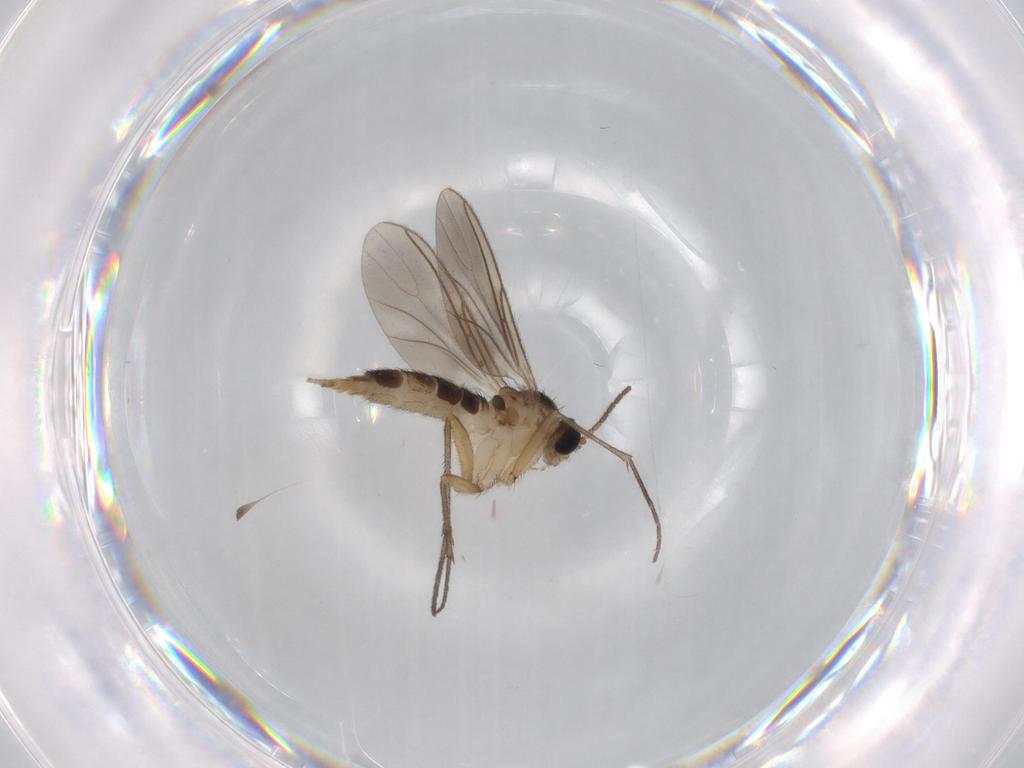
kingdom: Animalia
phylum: Arthropoda
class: Insecta
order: Diptera
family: Sciaridae
